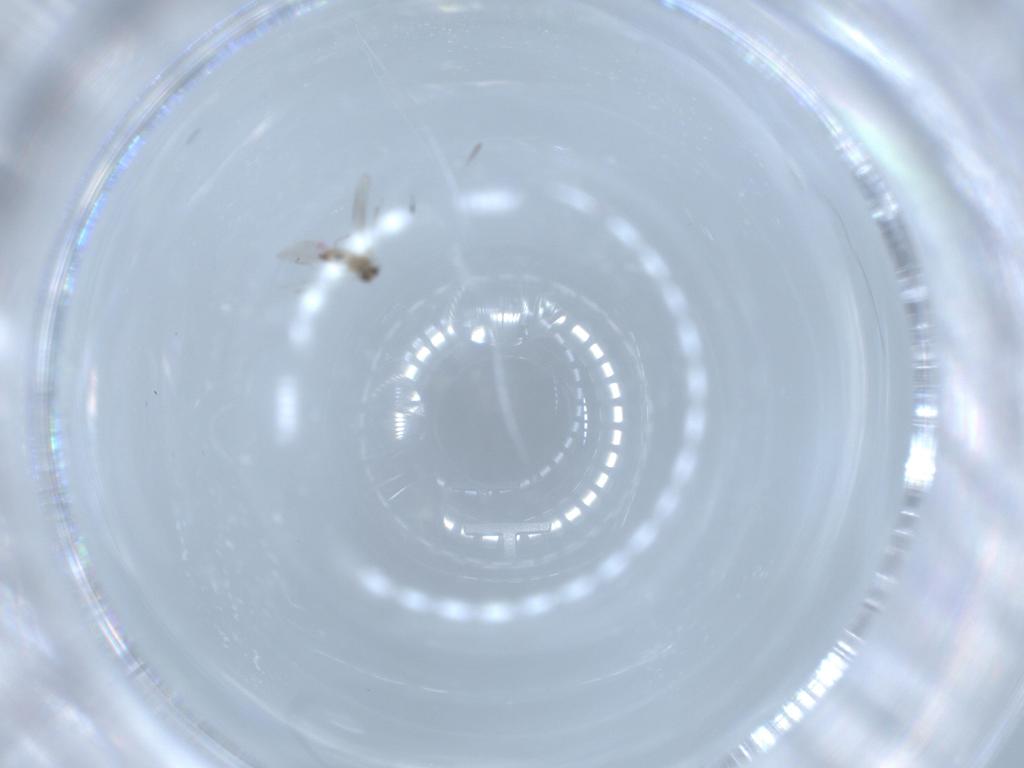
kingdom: Animalia
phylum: Arthropoda
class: Insecta
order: Diptera
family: Cecidomyiidae
